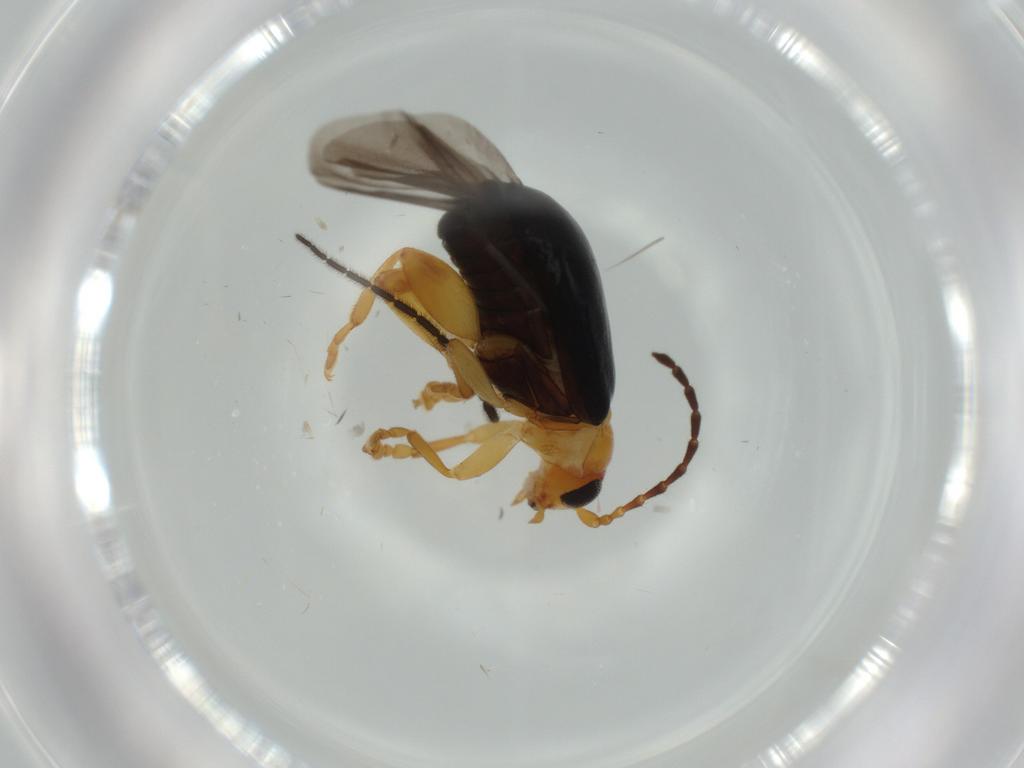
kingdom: Animalia
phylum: Arthropoda
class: Insecta
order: Coleoptera
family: Chrysomelidae
